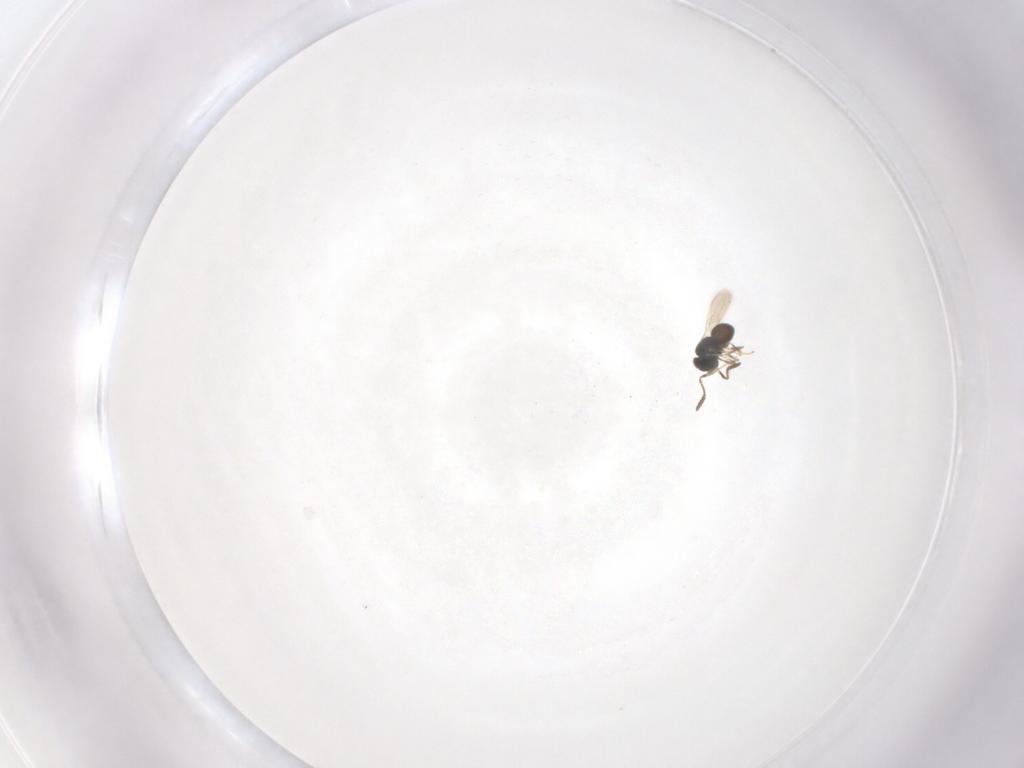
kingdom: Animalia
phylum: Arthropoda
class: Insecta
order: Hymenoptera
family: Scelionidae
